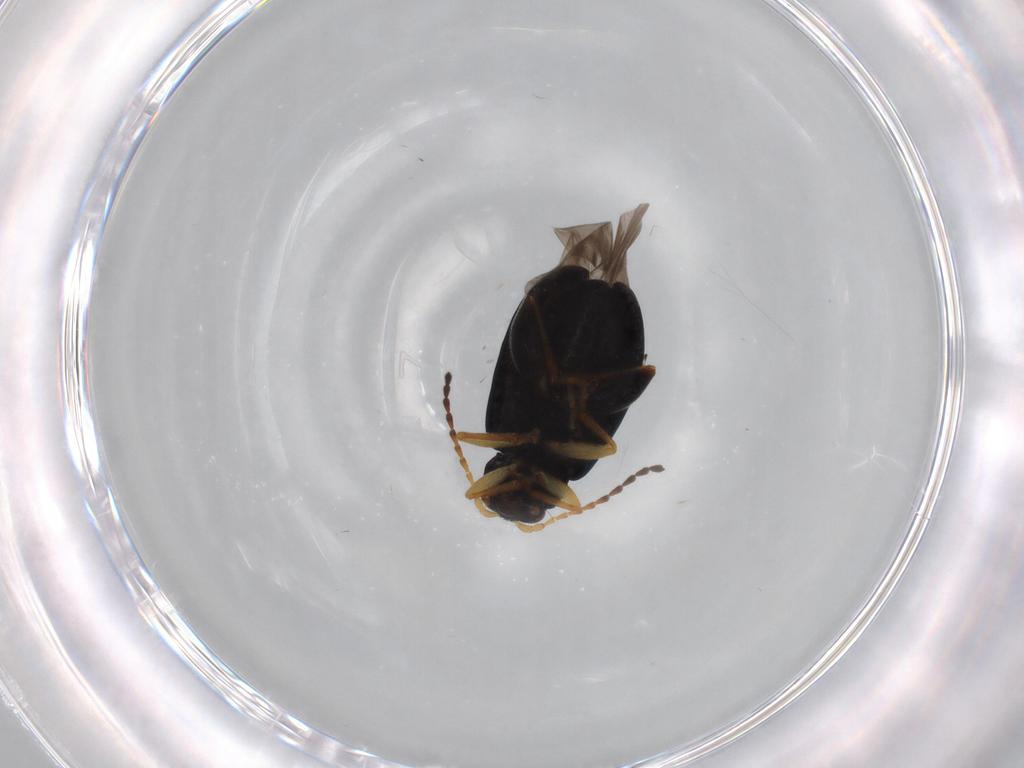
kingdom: Animalia
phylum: Arthropoda
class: Insecta
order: Coleoptera
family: Chrysomelidae
